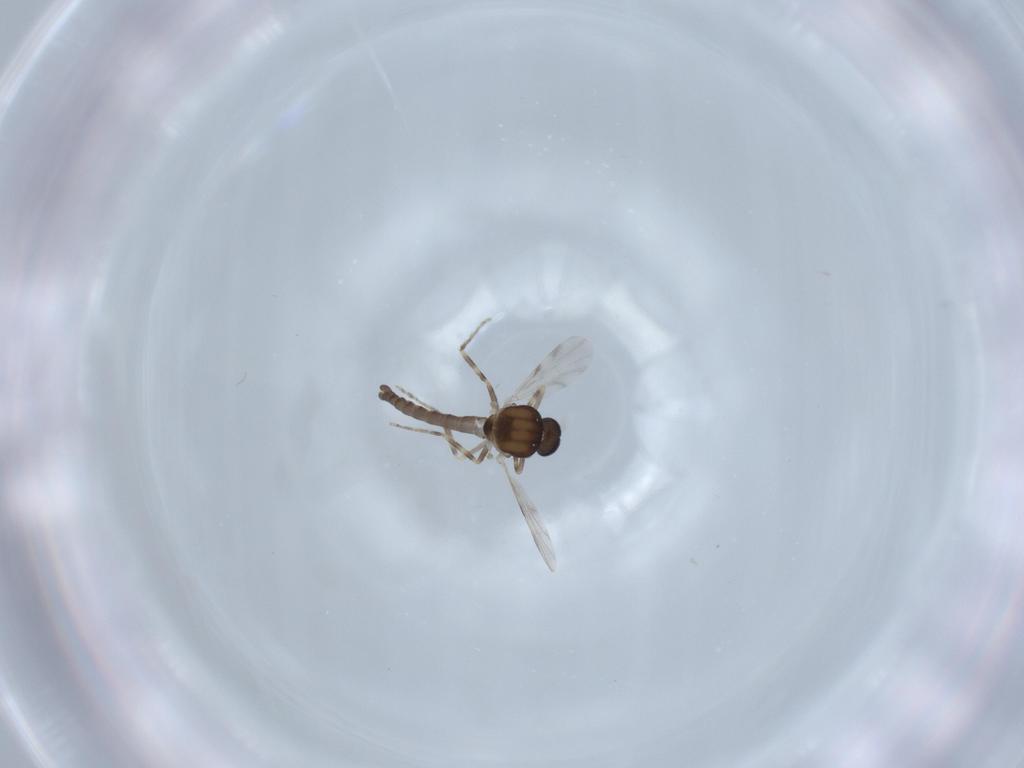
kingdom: Animalia
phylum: Arthropoda
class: Insecta
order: Diptera
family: Ceratopogonidae
